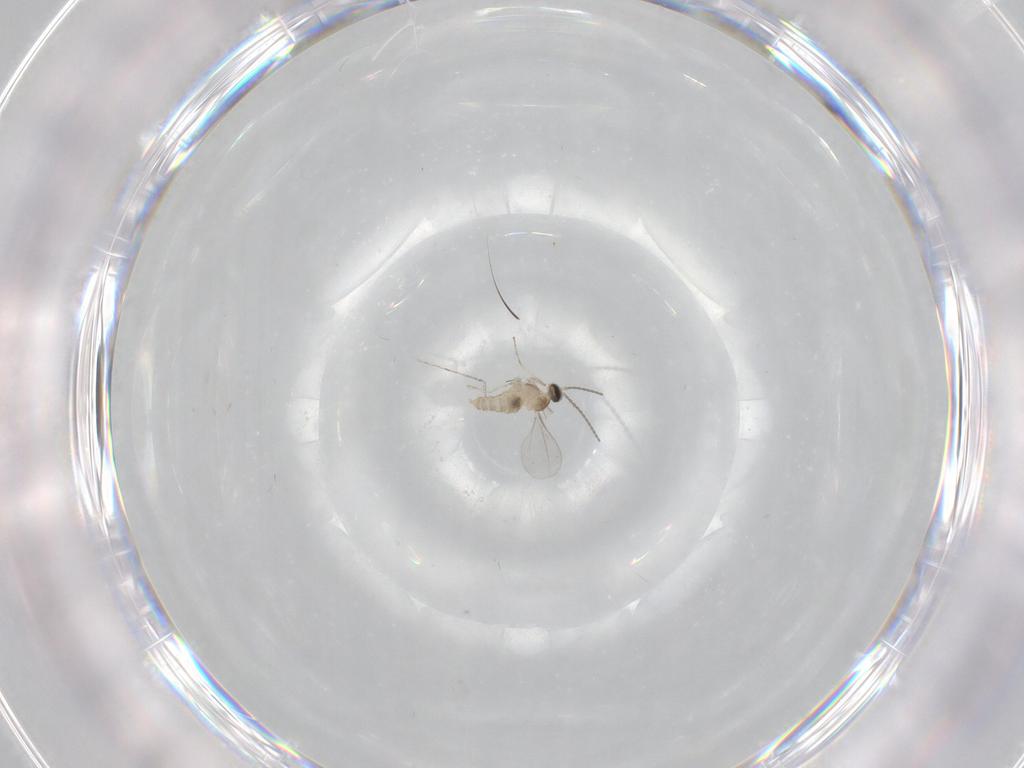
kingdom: Animalia
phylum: Arthropoda
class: Insecta
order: Diptera
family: Cecidomyiidae
